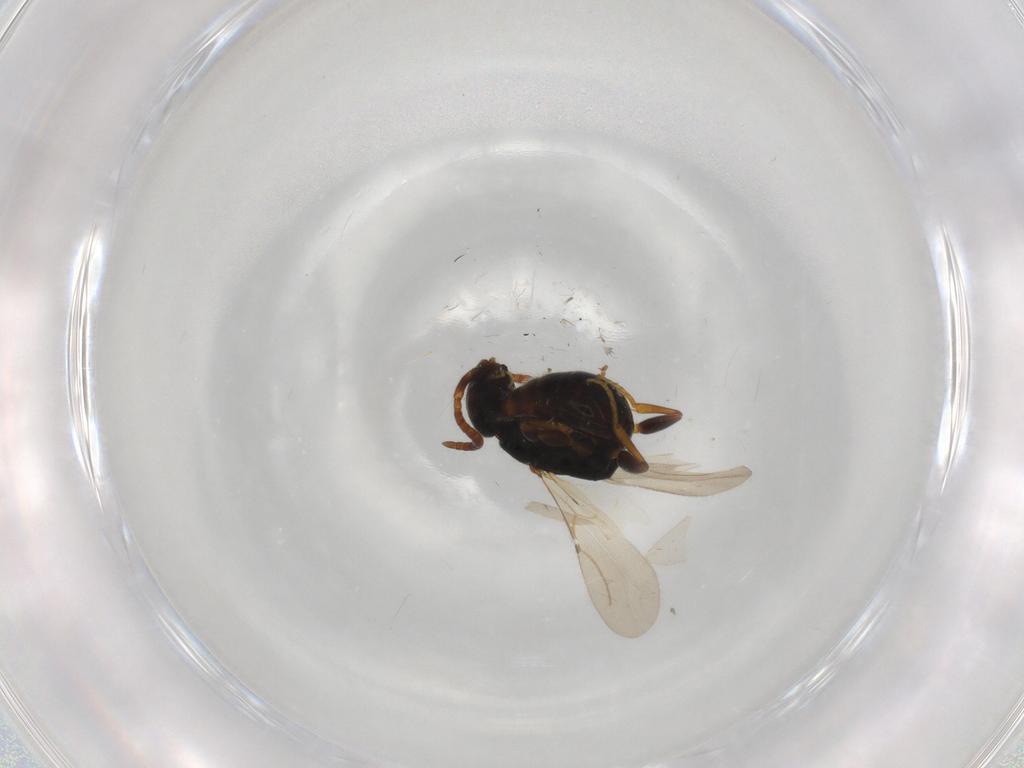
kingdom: Animalia
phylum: Arthropoda
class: Insecta
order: Hymenoptera
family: Bethylidae
